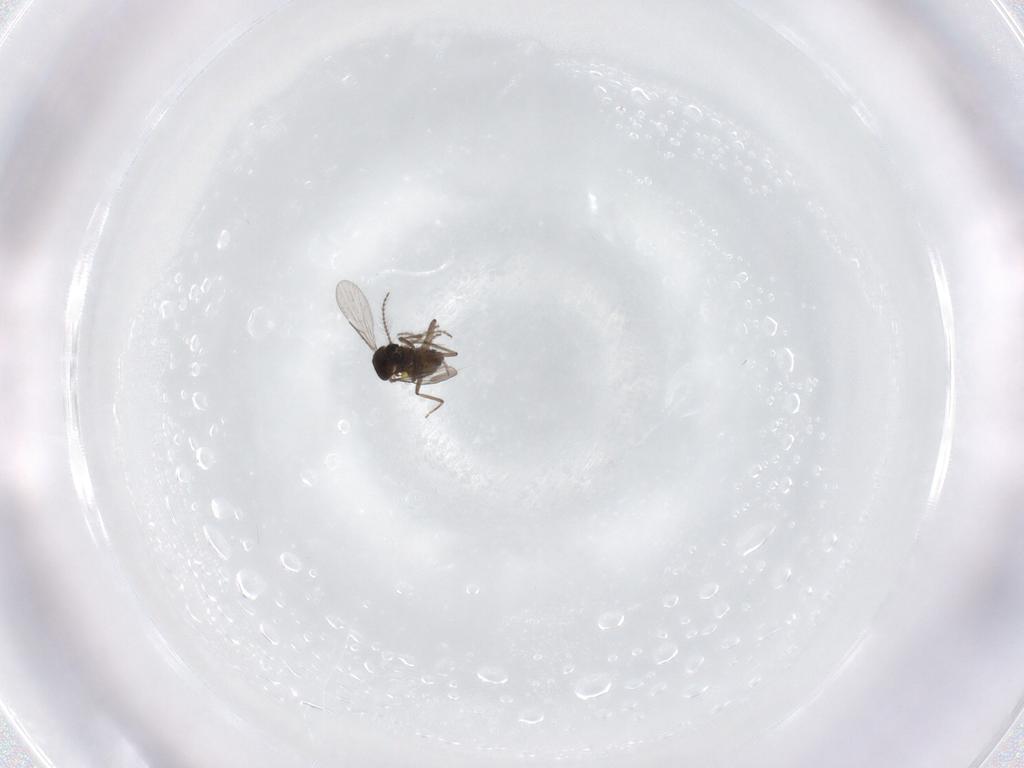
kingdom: Animalia
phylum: Arthropoda
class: Insecta
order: Diptera
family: Ceratopogonidae
